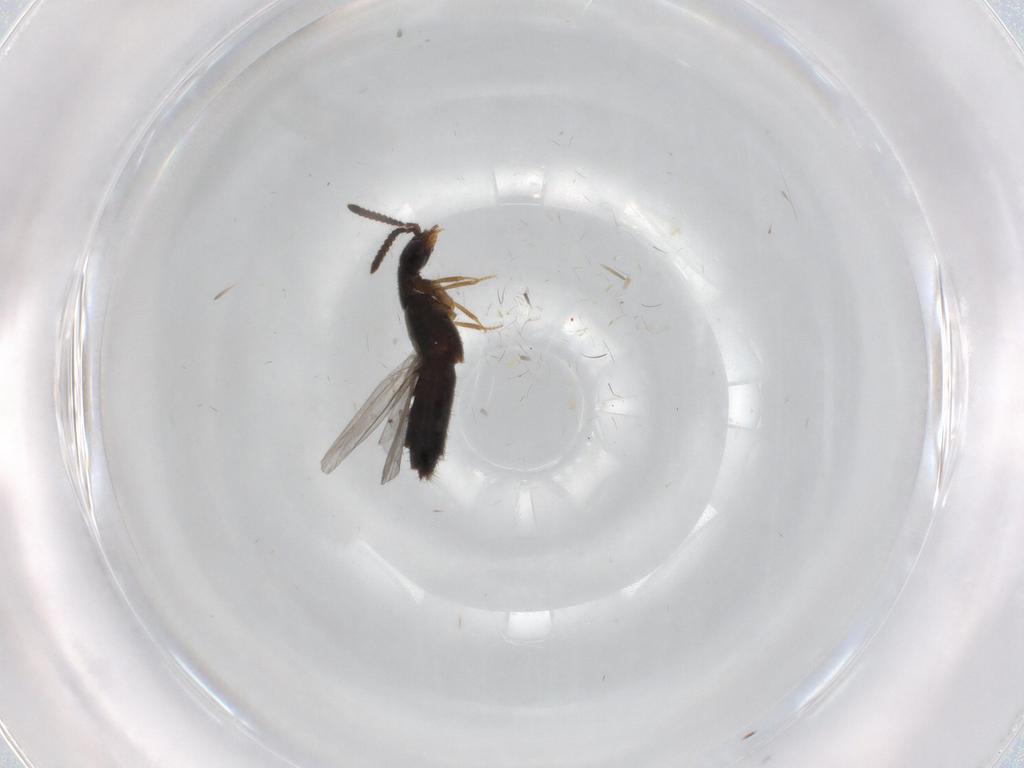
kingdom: Animalia
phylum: Arthropoda
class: Insecta
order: Coleoptera
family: Staphylinidae
